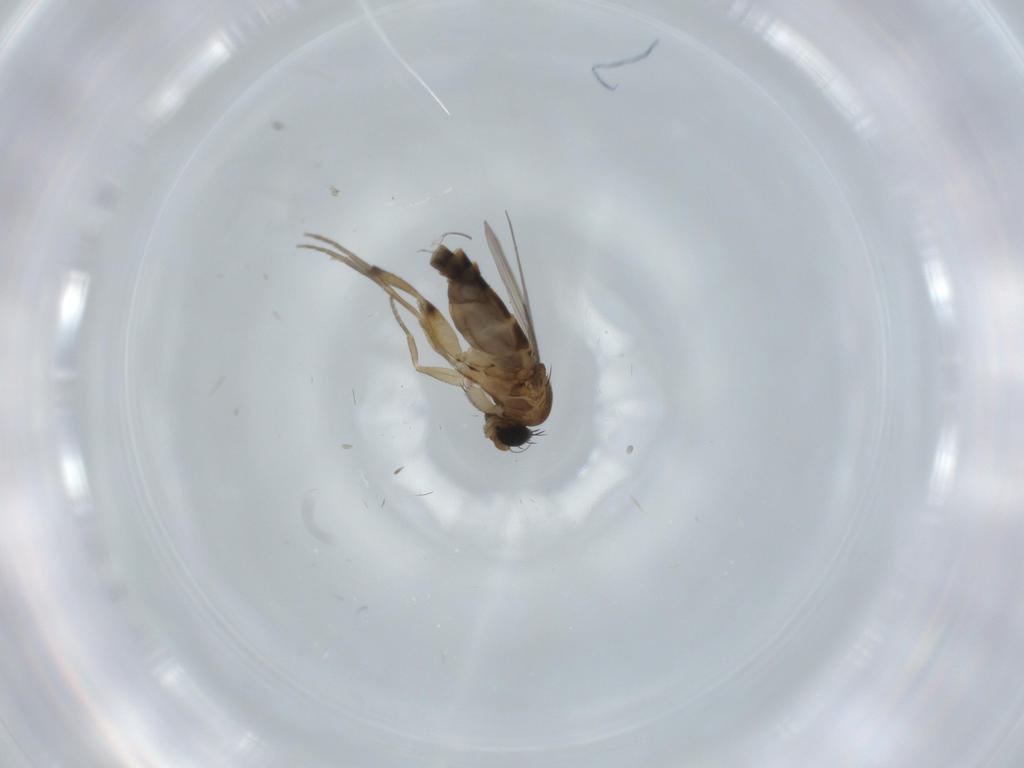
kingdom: Animalia
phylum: Arthropoda
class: Insecta
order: Diptera
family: Phoridae
